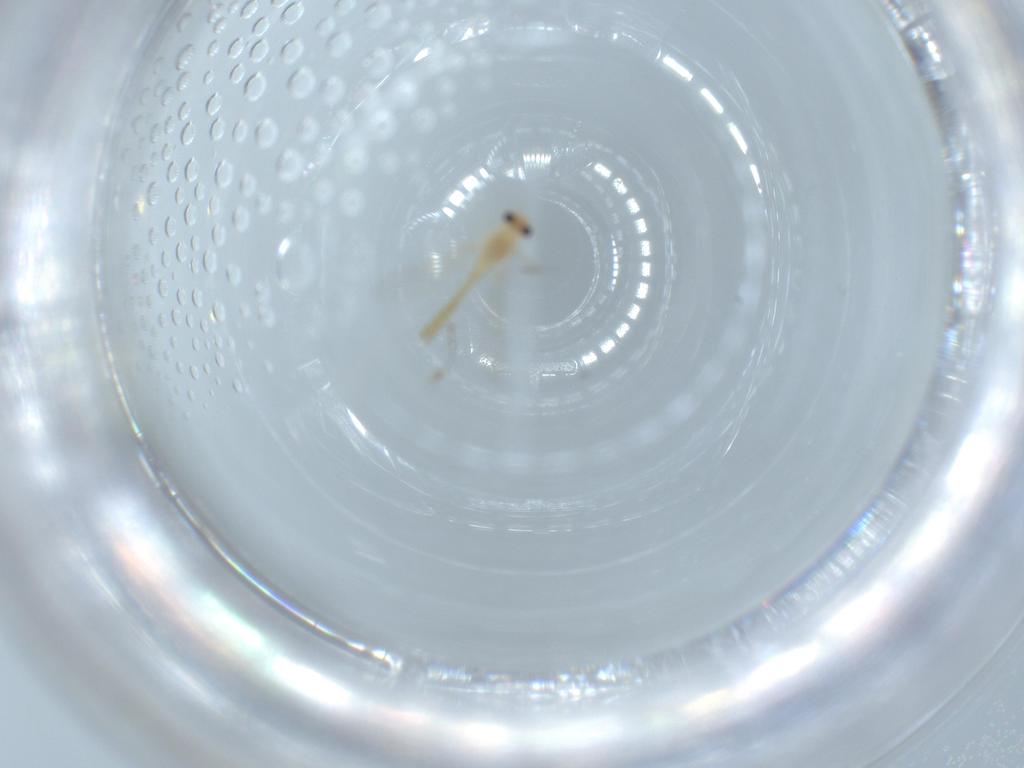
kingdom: Animalia
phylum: Arthropoda
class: Insecta
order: Diptera
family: Chironomidae
